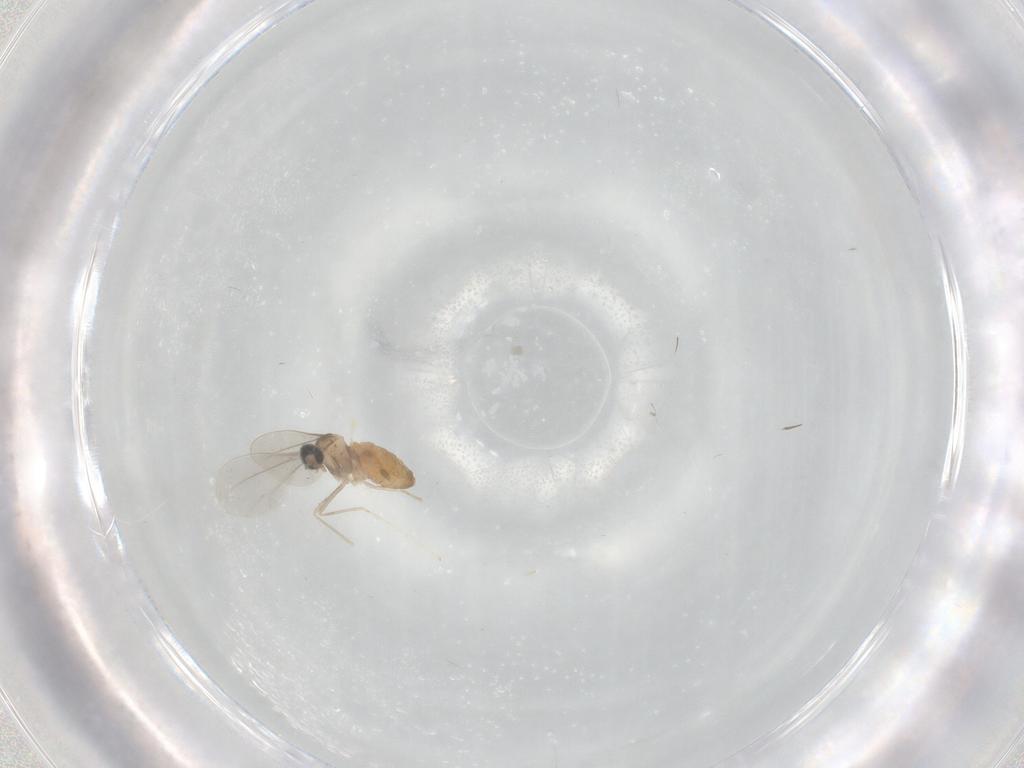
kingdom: Animalia
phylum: Arthropoda
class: Insecta
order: Diptera
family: Cecidomyiidae
